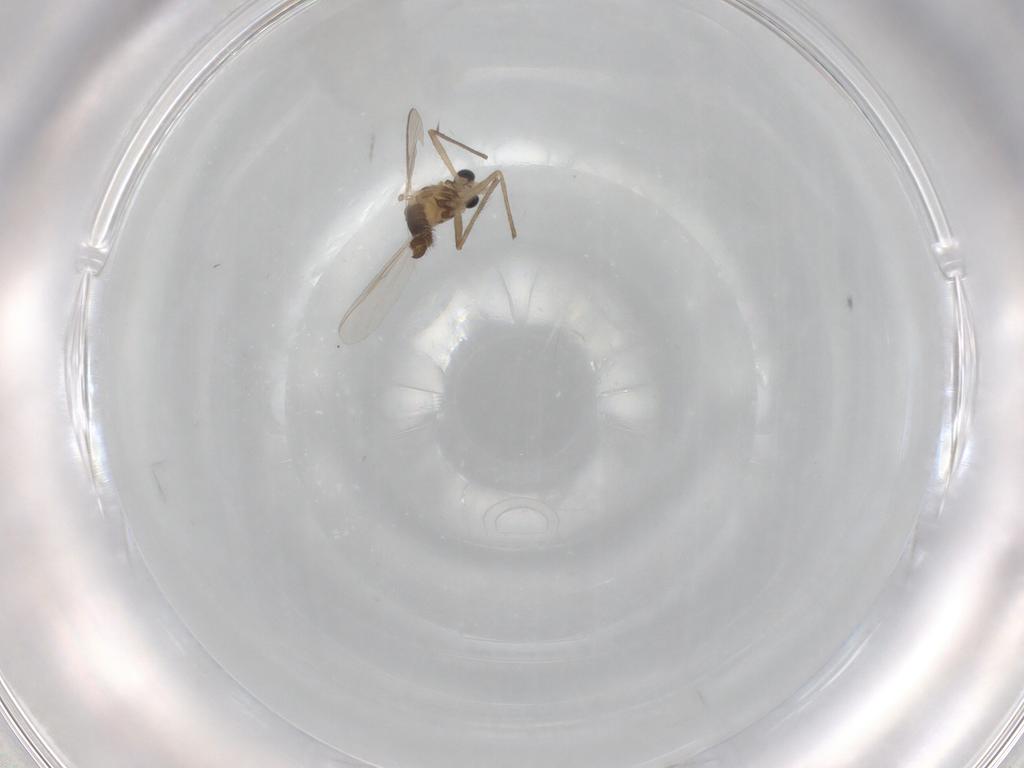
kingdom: Animalia
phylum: Arthropoda
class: Insecta
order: Diptera
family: Chironomidae
